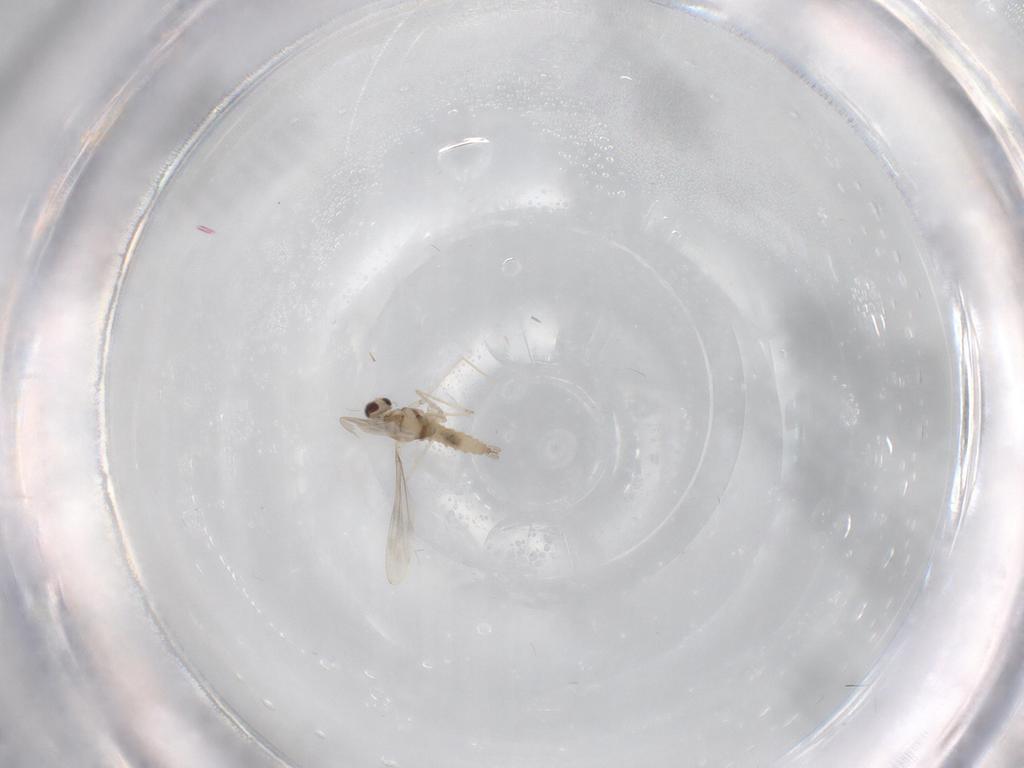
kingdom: Animalia
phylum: Arthropoda
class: Insecta
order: Diptera
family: Cecidomyiidae
